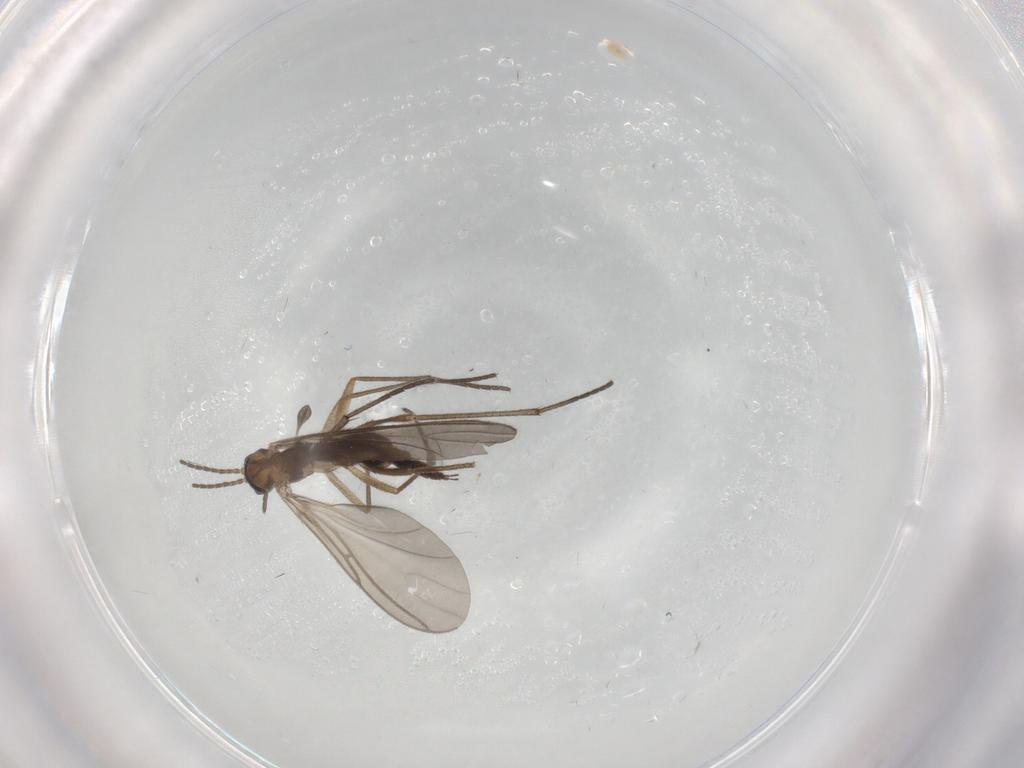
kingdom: Animalia
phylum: Arthropoda
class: Insecta
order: Diptera
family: Sciaridae
